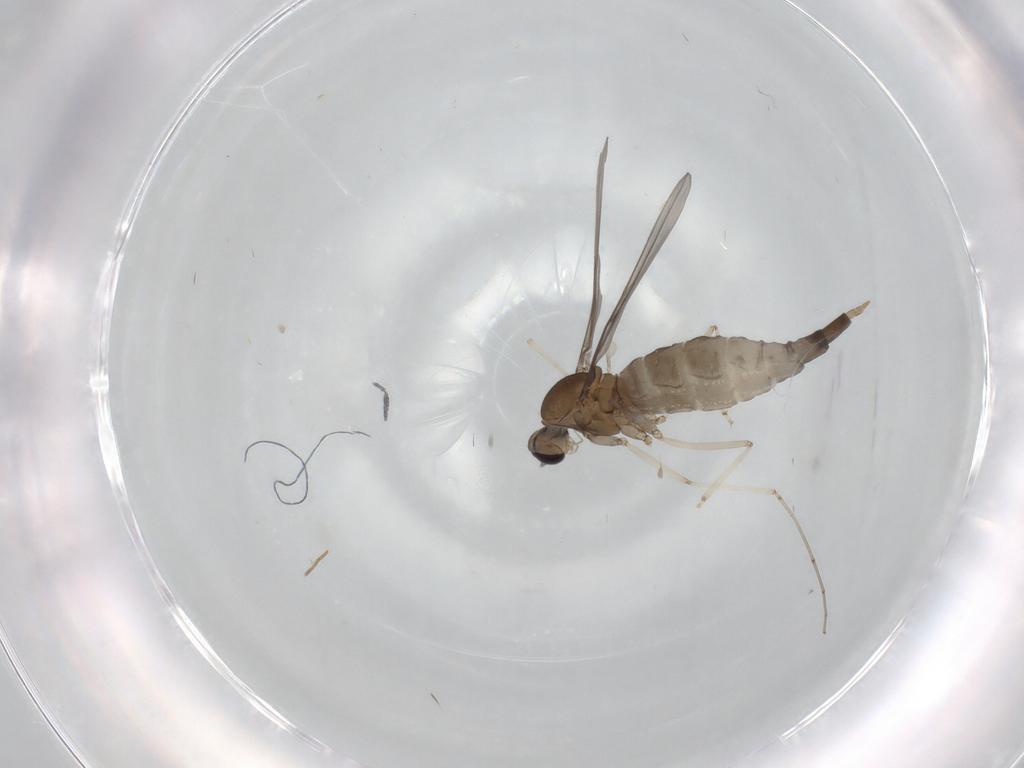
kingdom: Animalia
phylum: Arthropoda
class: Insecta
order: Diptera
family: Cecidomyiidae
